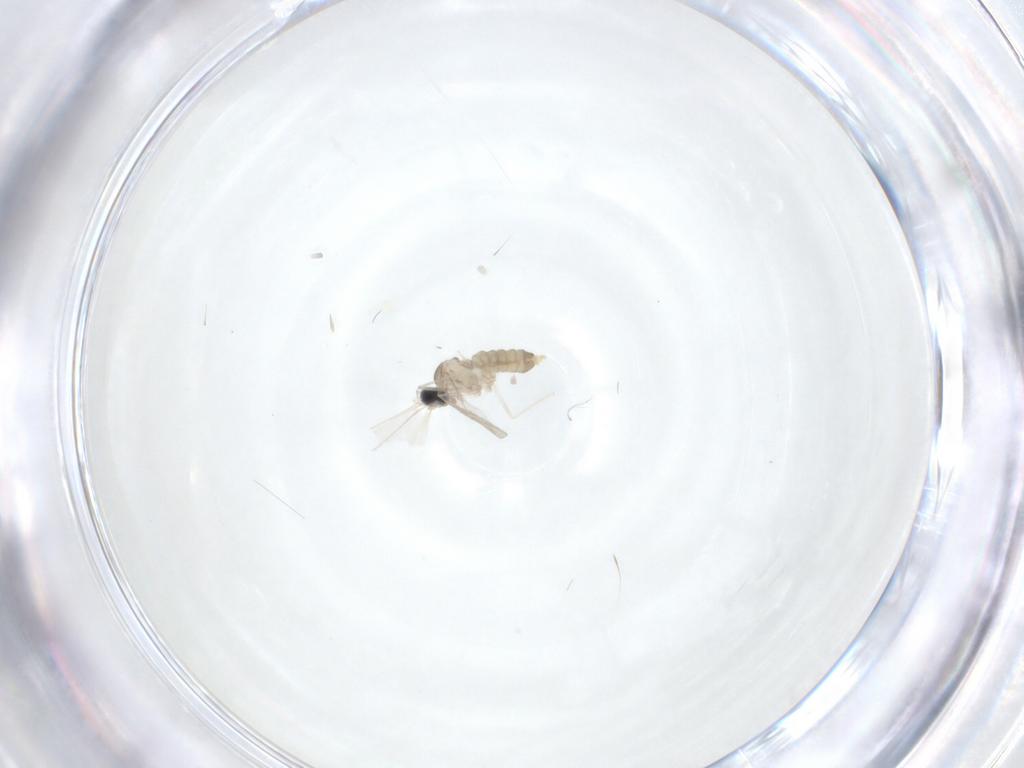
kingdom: Animalia
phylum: Arthropoda
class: Insecta
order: Diptera
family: Cecidomyiidae
